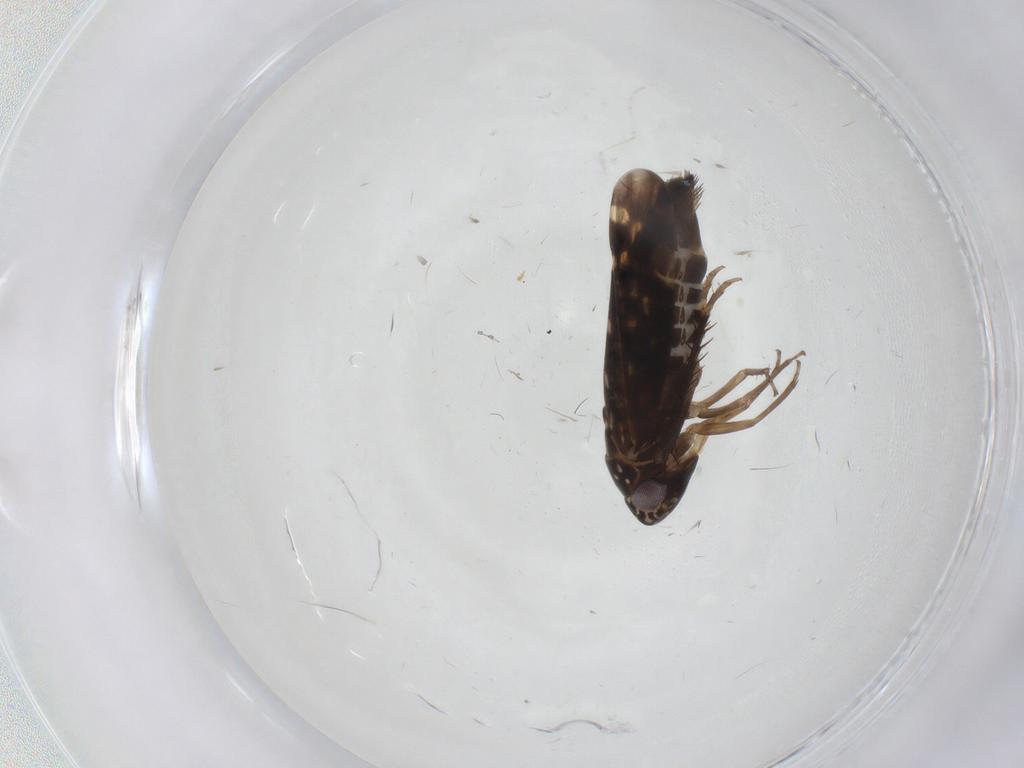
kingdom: Animalia
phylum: Arthropoda
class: Insecta
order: Hemiptera
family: Cicadellidae
